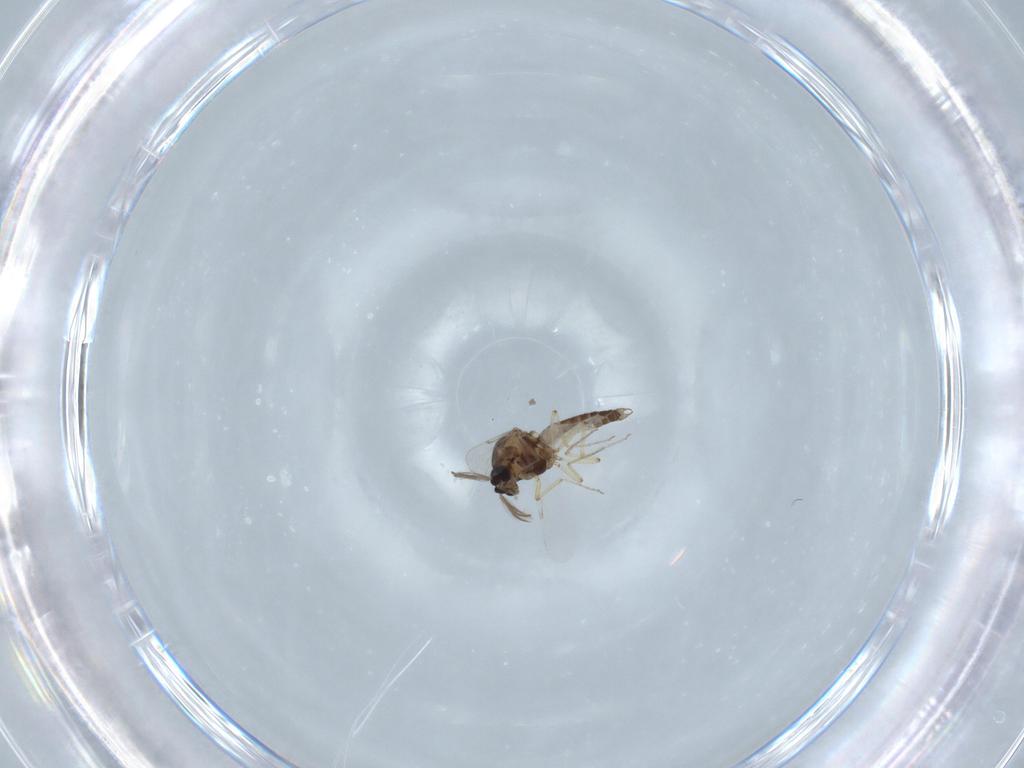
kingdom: Animalia
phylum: Arthropoda
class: Insecta
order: Diptera
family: Ceratopogonidae
